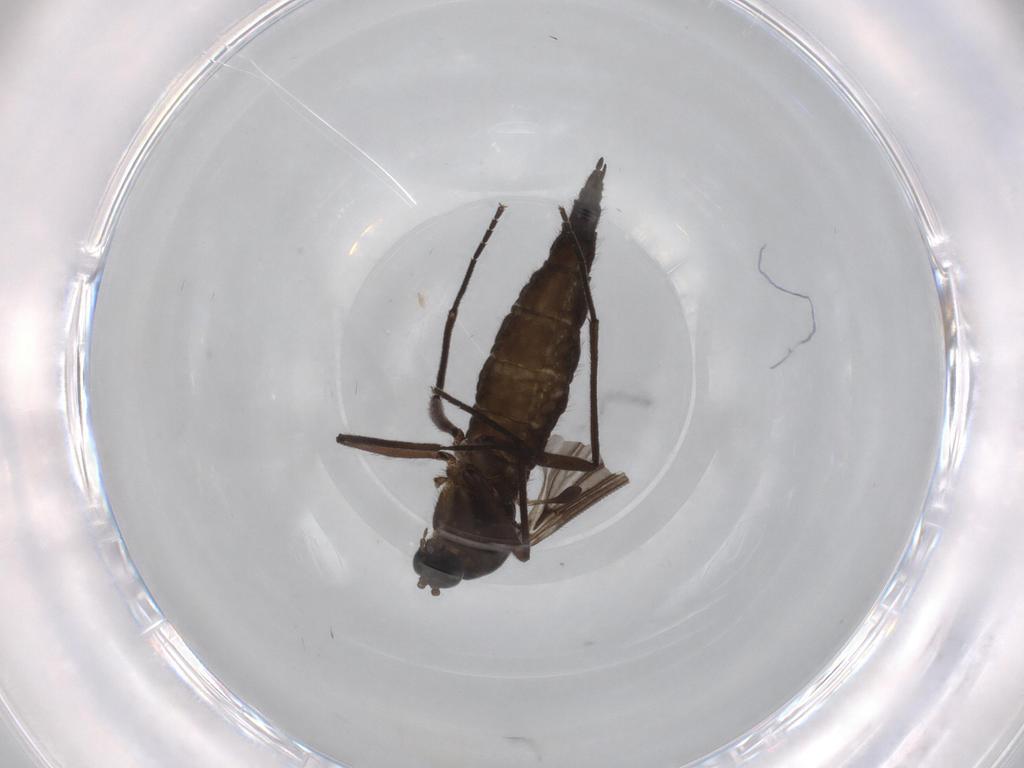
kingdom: Animalia
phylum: Arthropoda
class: Insecta
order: Diptera
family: Sciaridae
